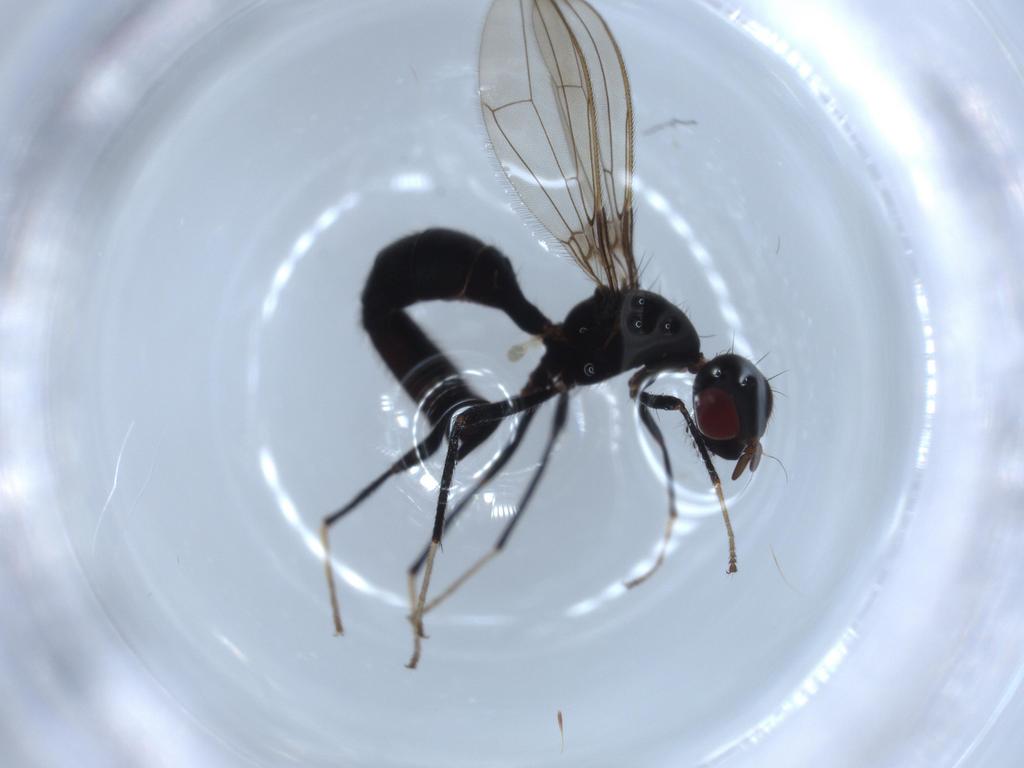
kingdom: Animalia
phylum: Arthropoda
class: Insecta
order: Diptera
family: Richardiidae
